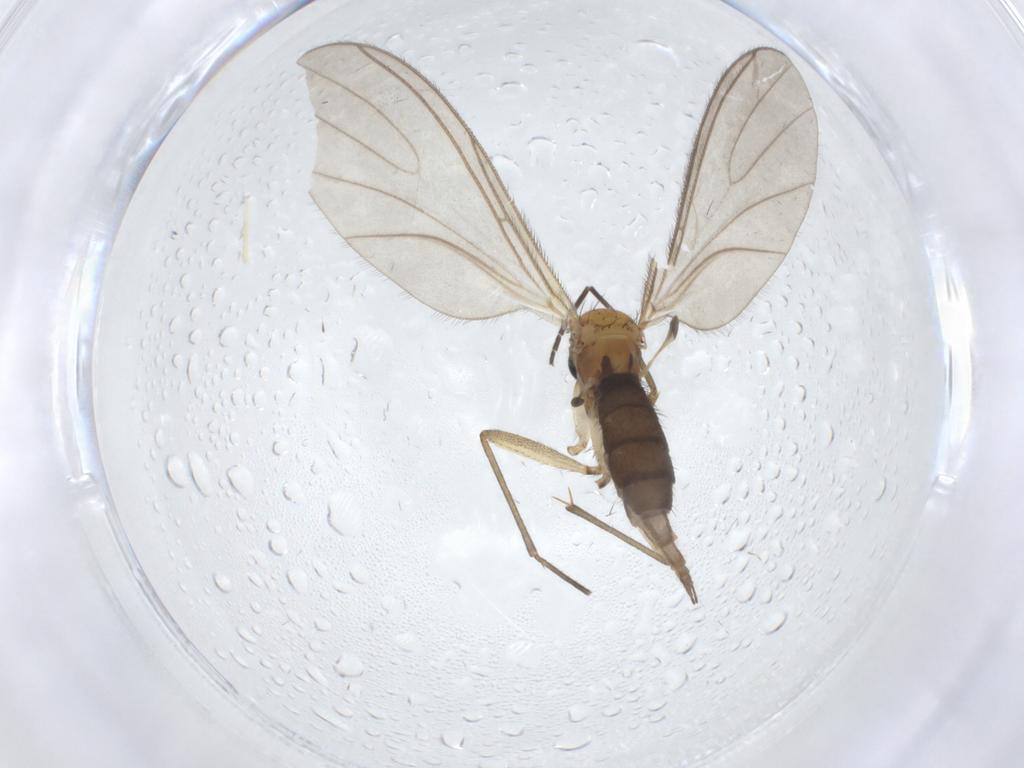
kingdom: Animalia
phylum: Arthropoda
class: Insecta
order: Diptera
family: Sciaridae
